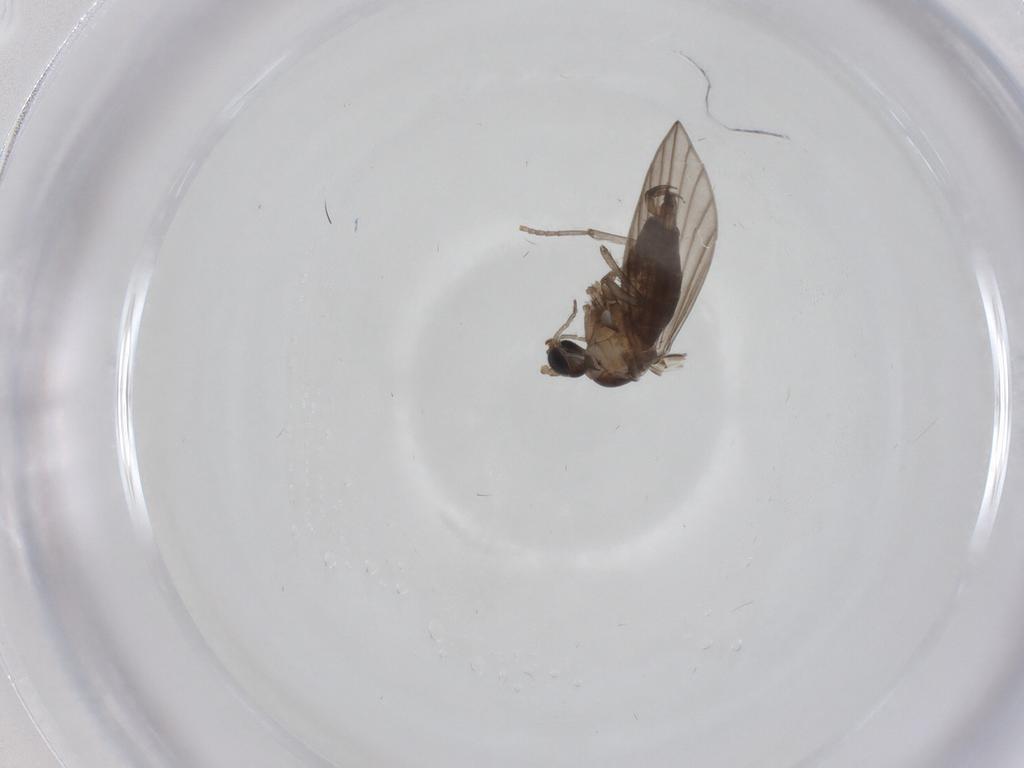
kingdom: Animalia
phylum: Arthropoda
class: Insecta
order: Diptera
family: Psychodidae
